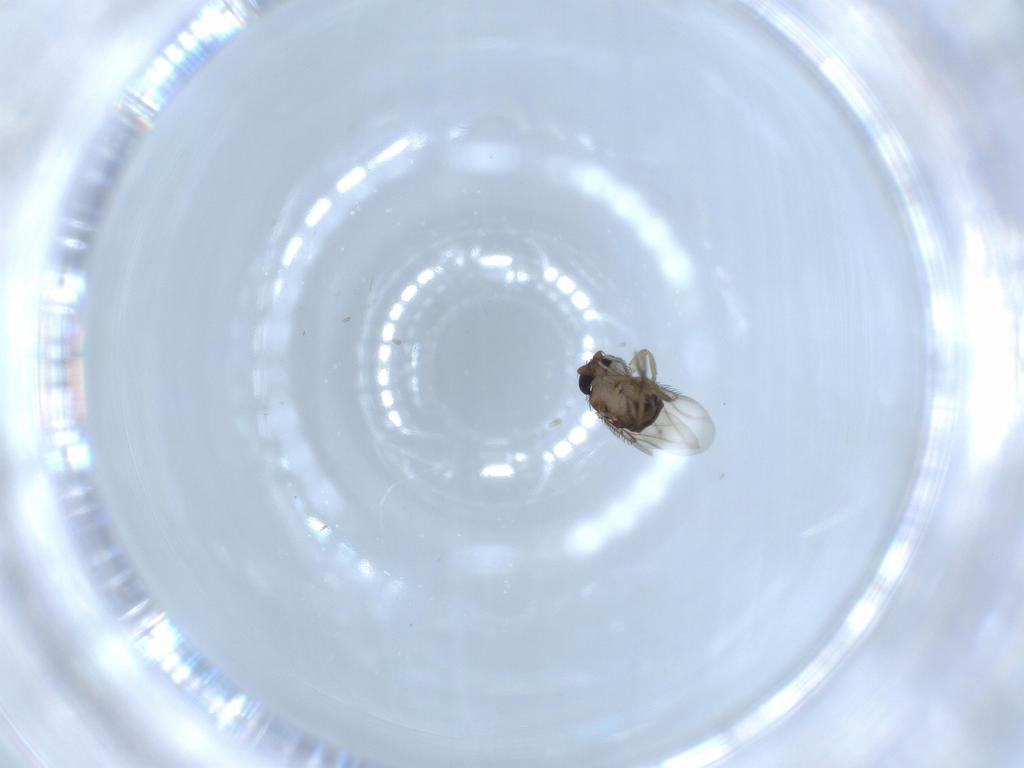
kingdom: Animalia
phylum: Arthropoda
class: Insecta
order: Diptera
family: Phoridae
